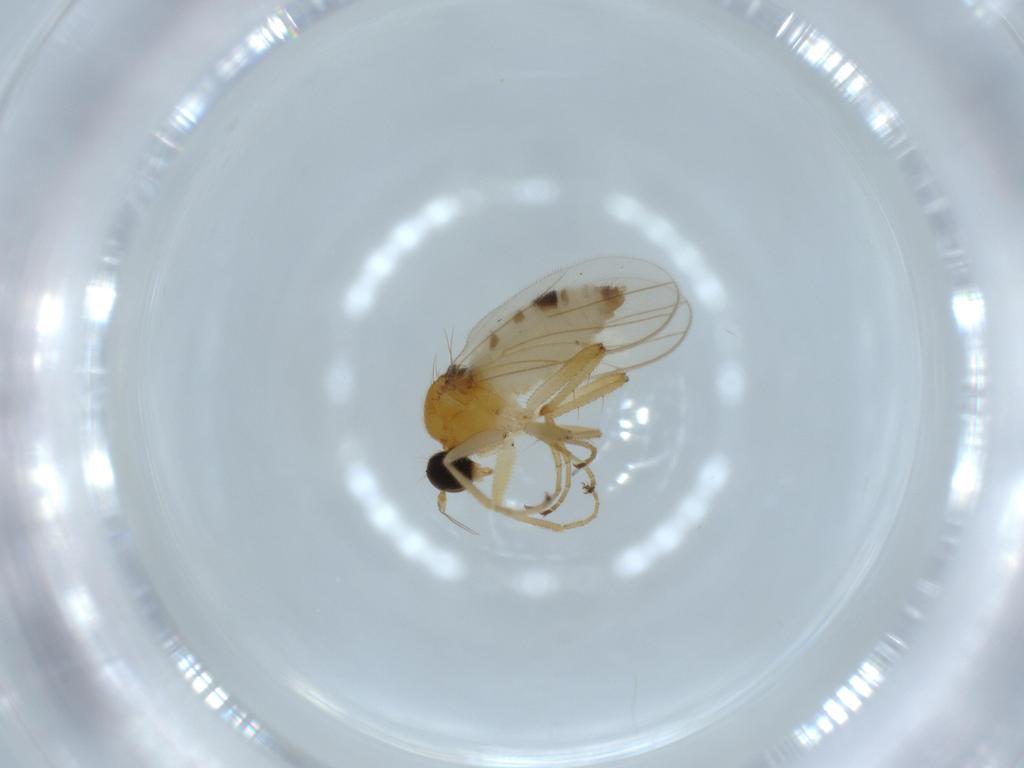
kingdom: Animalia
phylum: Arthropoda
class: Insecta
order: Diptera
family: Hybotidae
